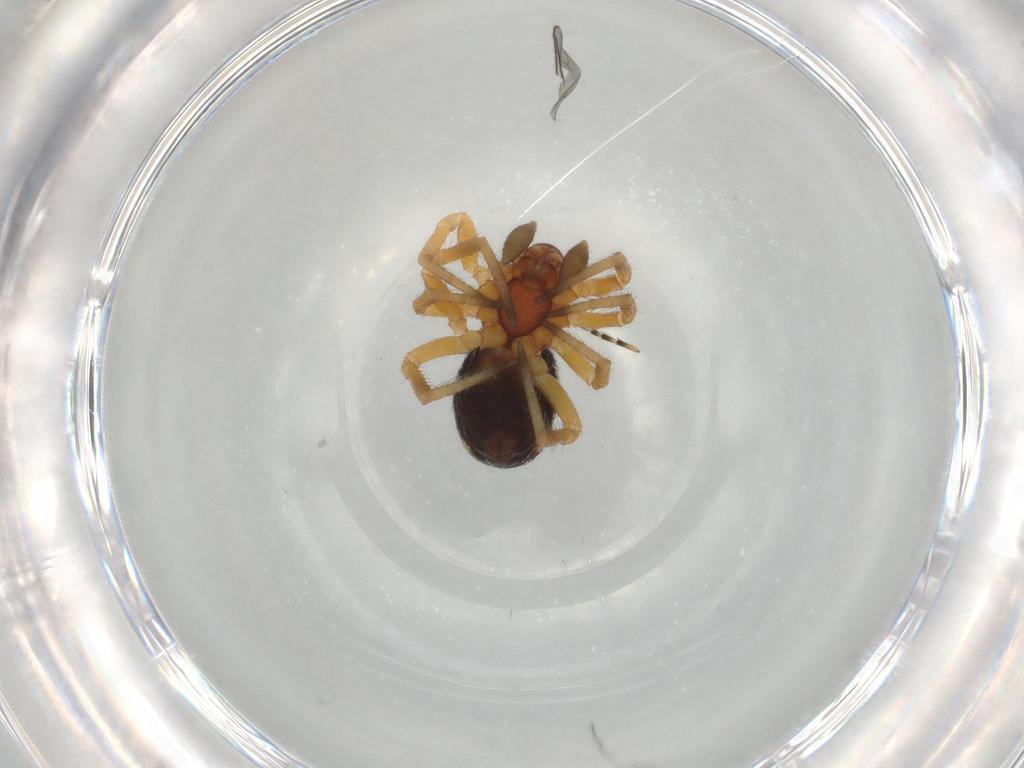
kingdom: Animalia
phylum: Arthropoda
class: Arachnida
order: Araneae
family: Theridiidae
